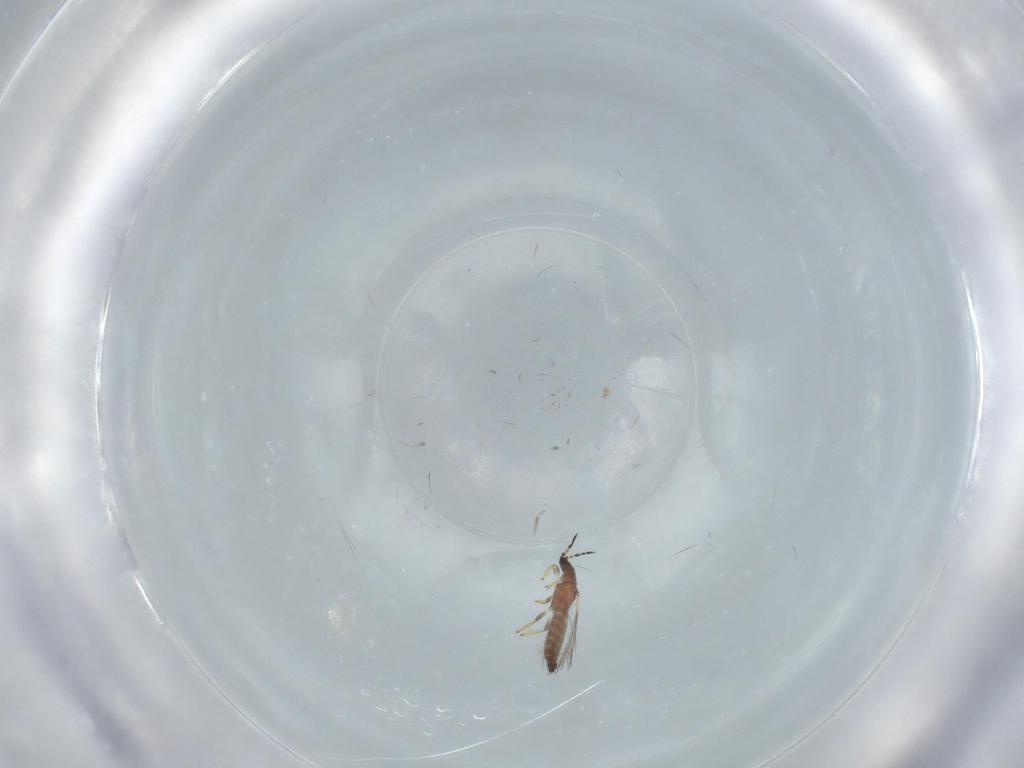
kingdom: Animalia
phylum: Arthropoda
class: Insecta
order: Thysanoptera
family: Thripidae
